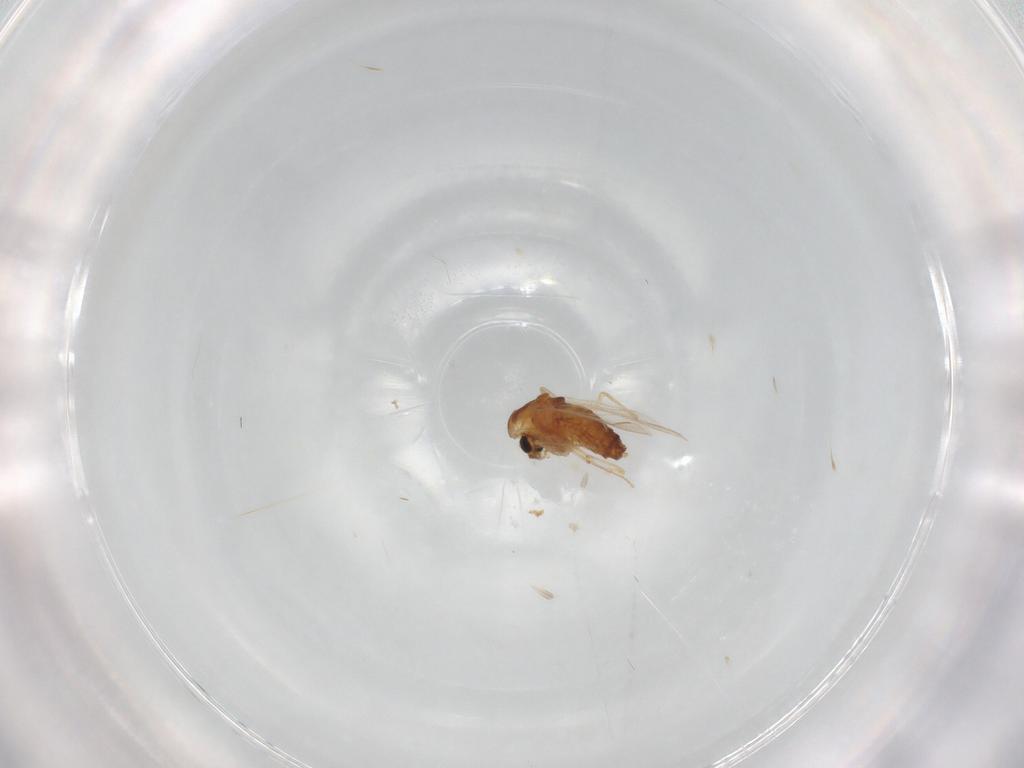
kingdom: Animalia
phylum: Arthropoda
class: Insecta
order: Diptera
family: Chironomidae
